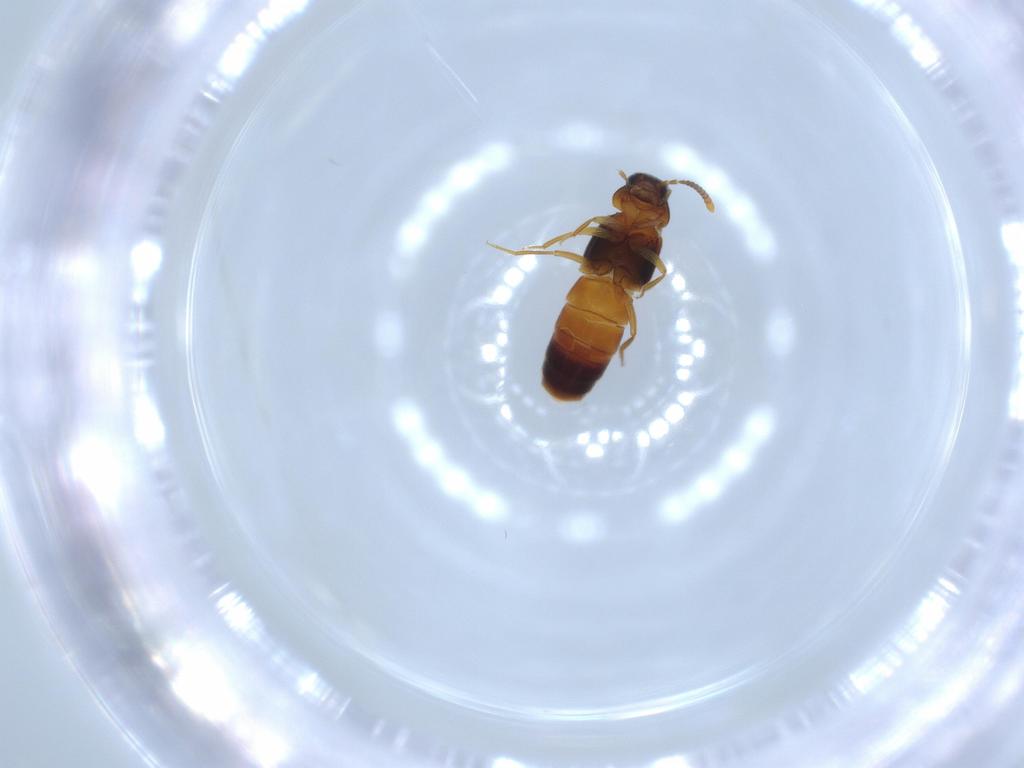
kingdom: Animalia
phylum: Arthropoda
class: Insecta
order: Coleoptera
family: Staphylinidae
